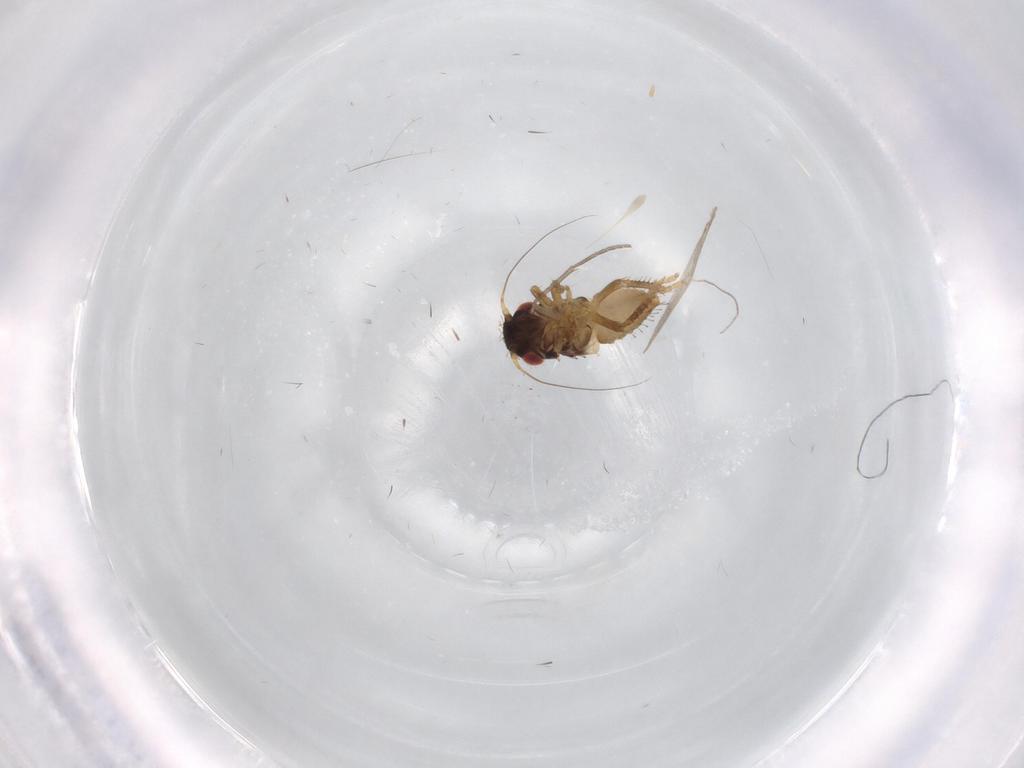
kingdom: Animalia
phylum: Arthropoda
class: Insecta
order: Hemiptera
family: Cicadellidae
